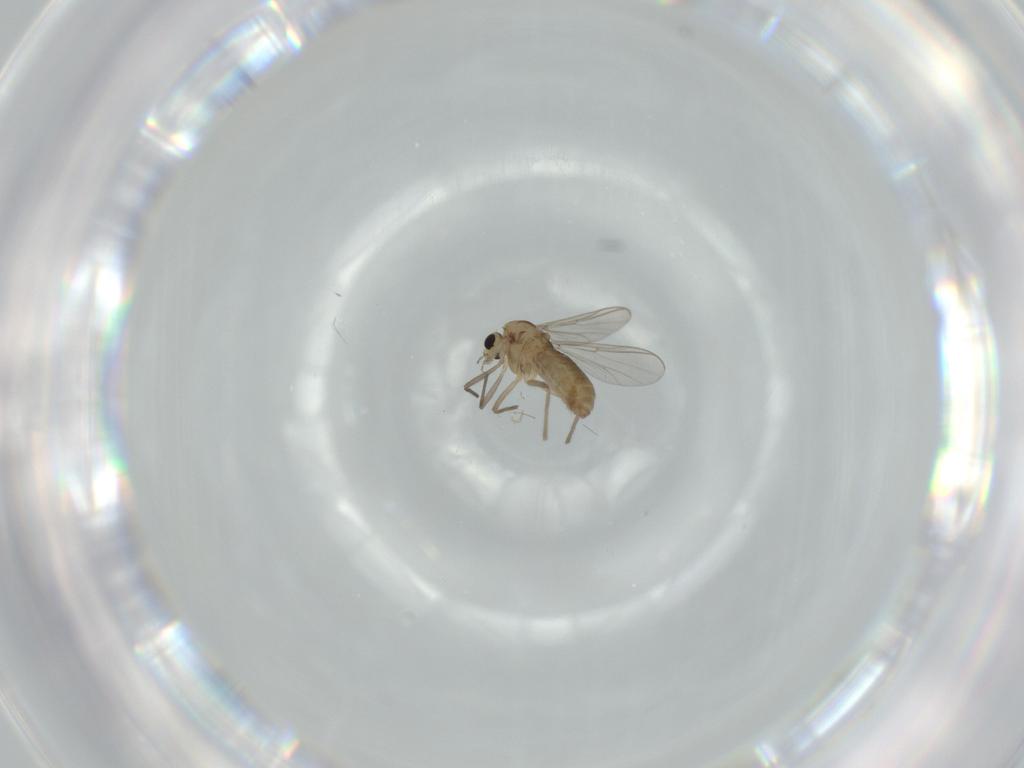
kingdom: Animalia
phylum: Arthropoda
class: Insecta
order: Diptera
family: Chironomidae
